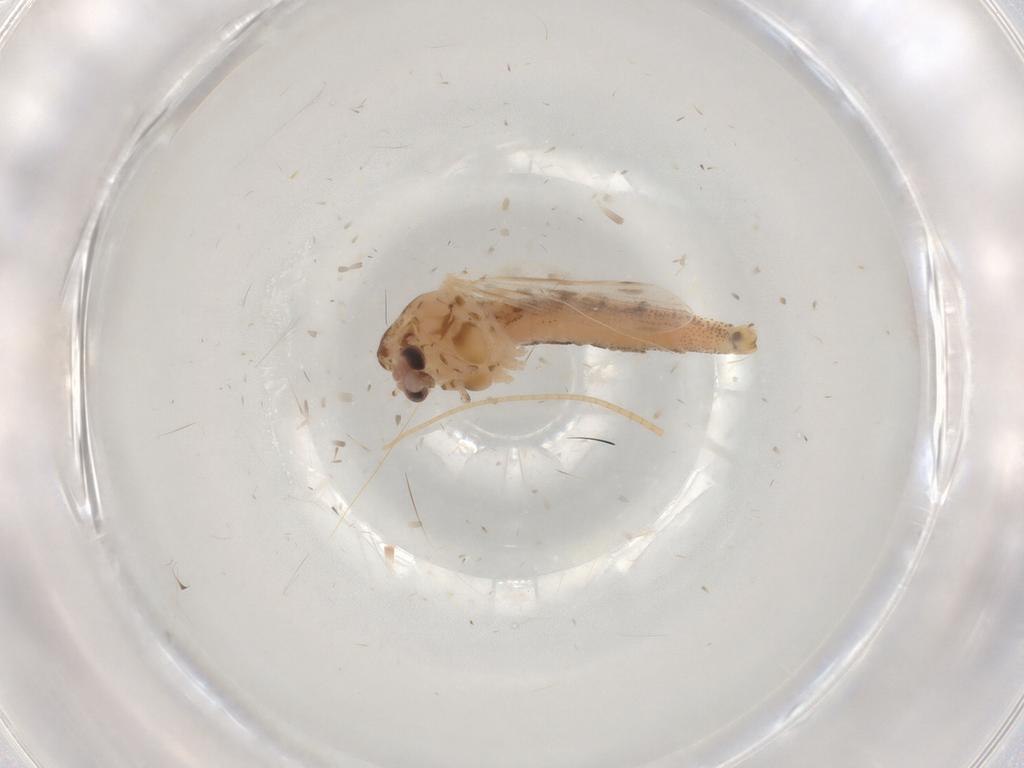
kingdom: Animalia
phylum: Arthropoda
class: Insecta
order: Diptera
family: Chaoboridae
